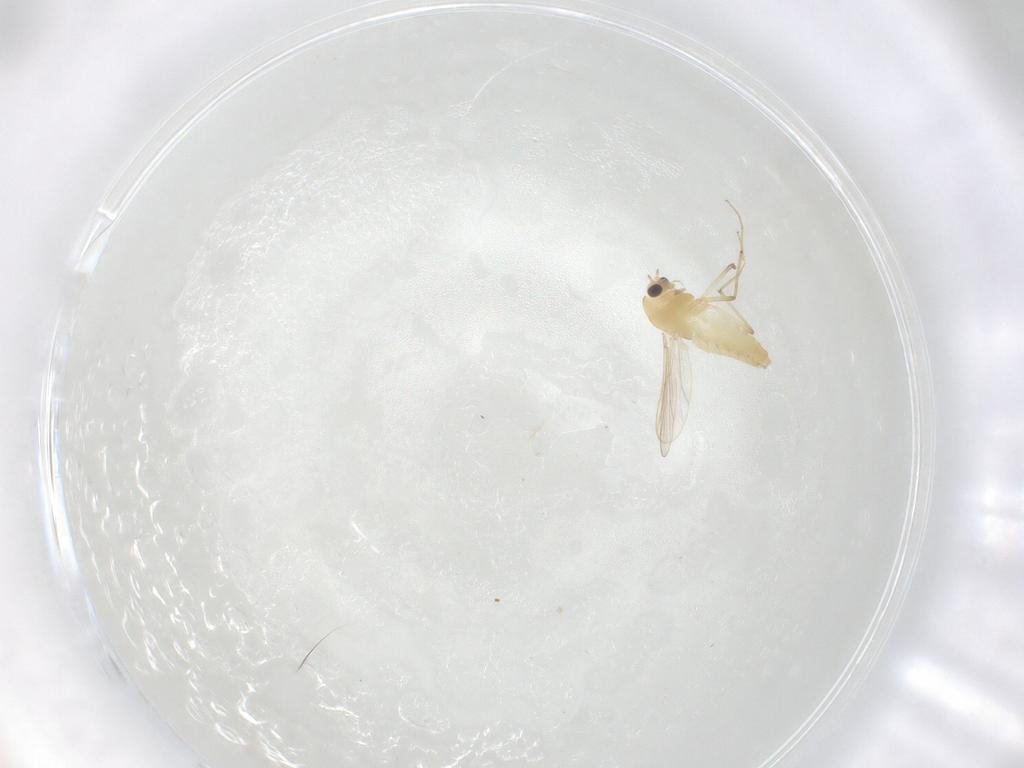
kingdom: Animalia
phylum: Arthropoda
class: Insecta
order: Diptera
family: Chironomidae
